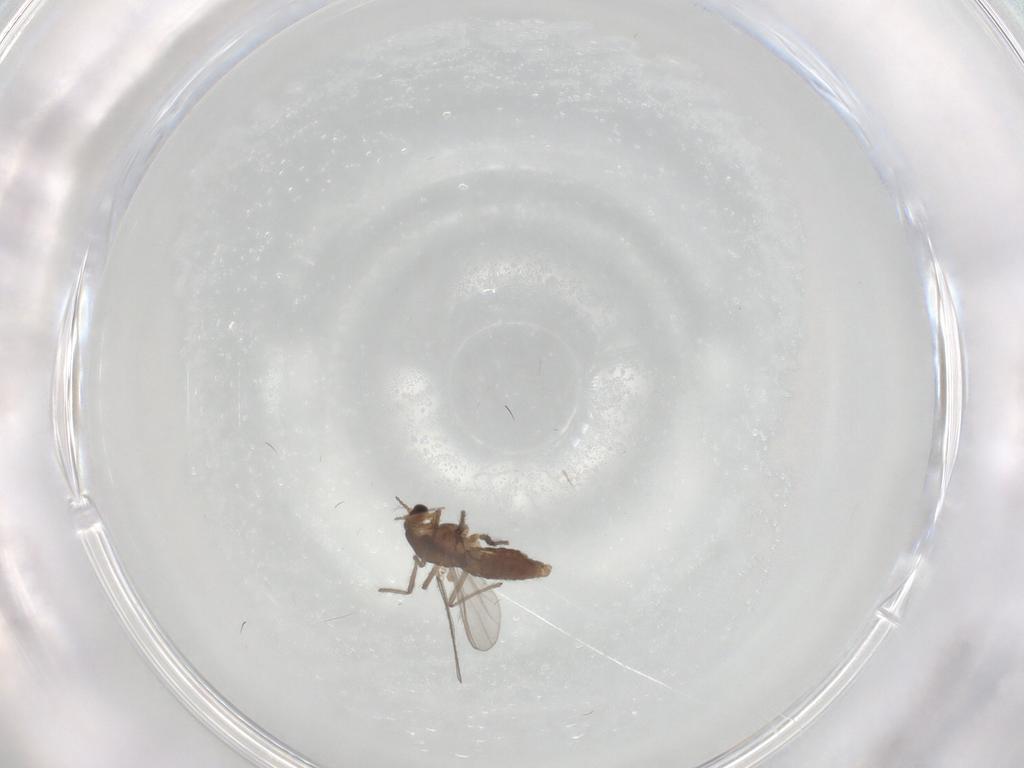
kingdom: Animalia
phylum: Arthropoda
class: Insecta
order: Diptera
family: Chironomidae
